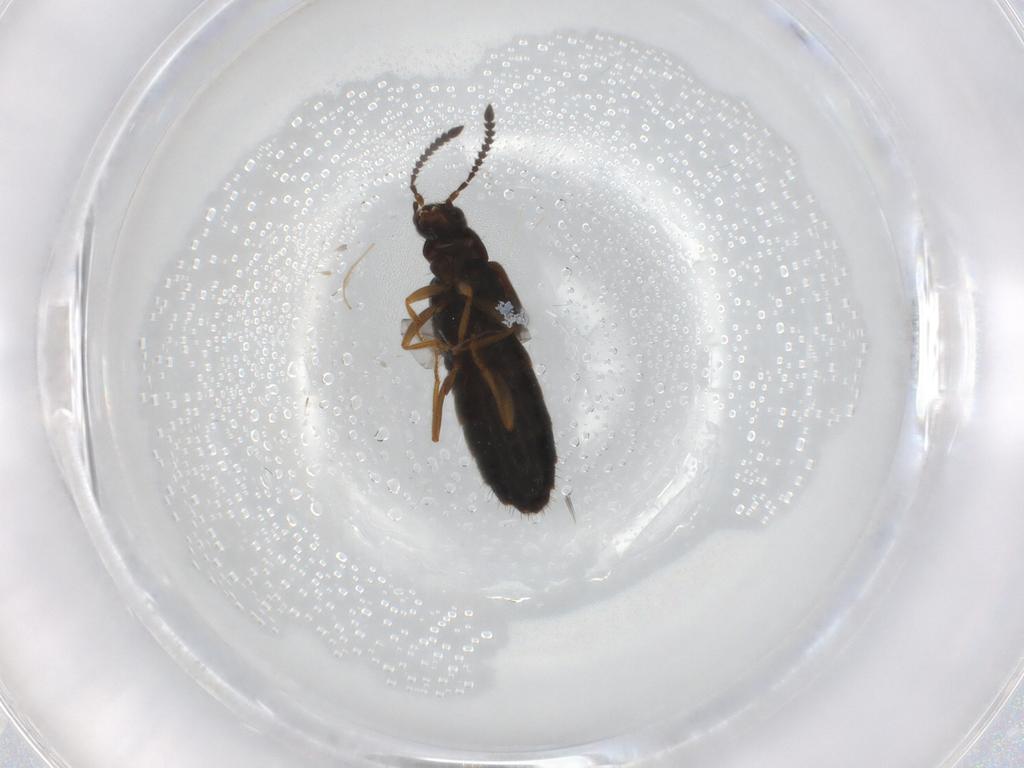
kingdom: Animalia
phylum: Arthropoda
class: Insecta
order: Coleoptera
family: Staphylinidae
